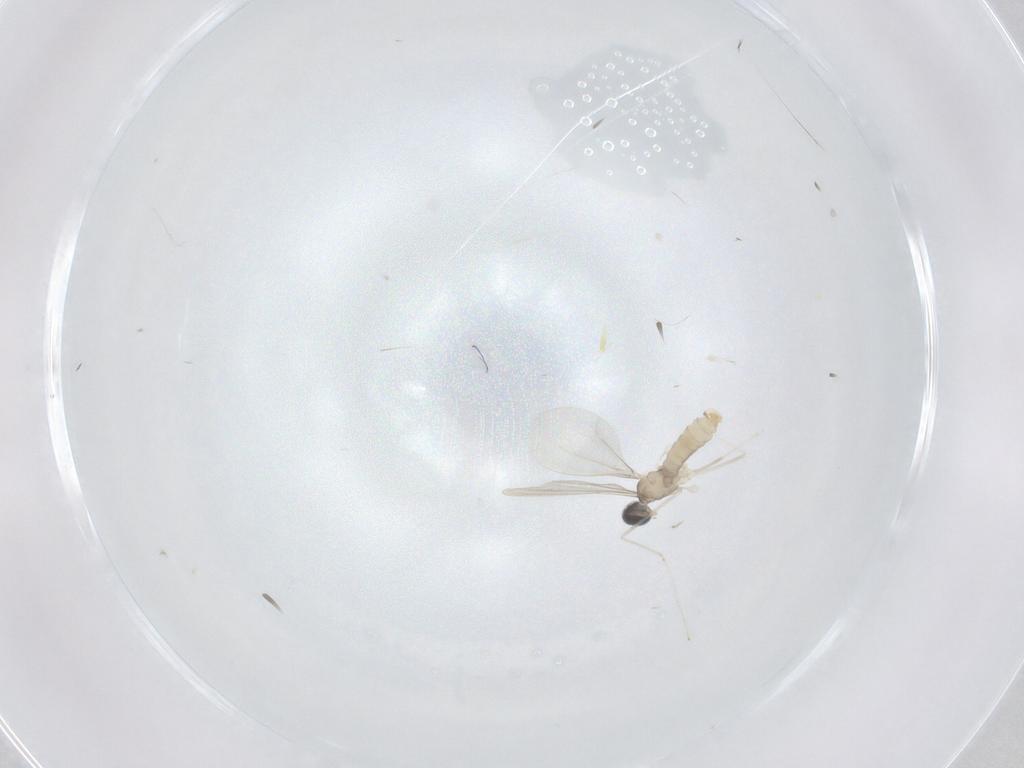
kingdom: Animalia
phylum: Arthropoda
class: Insecta
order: Diptera
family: Cecidomyiidae
